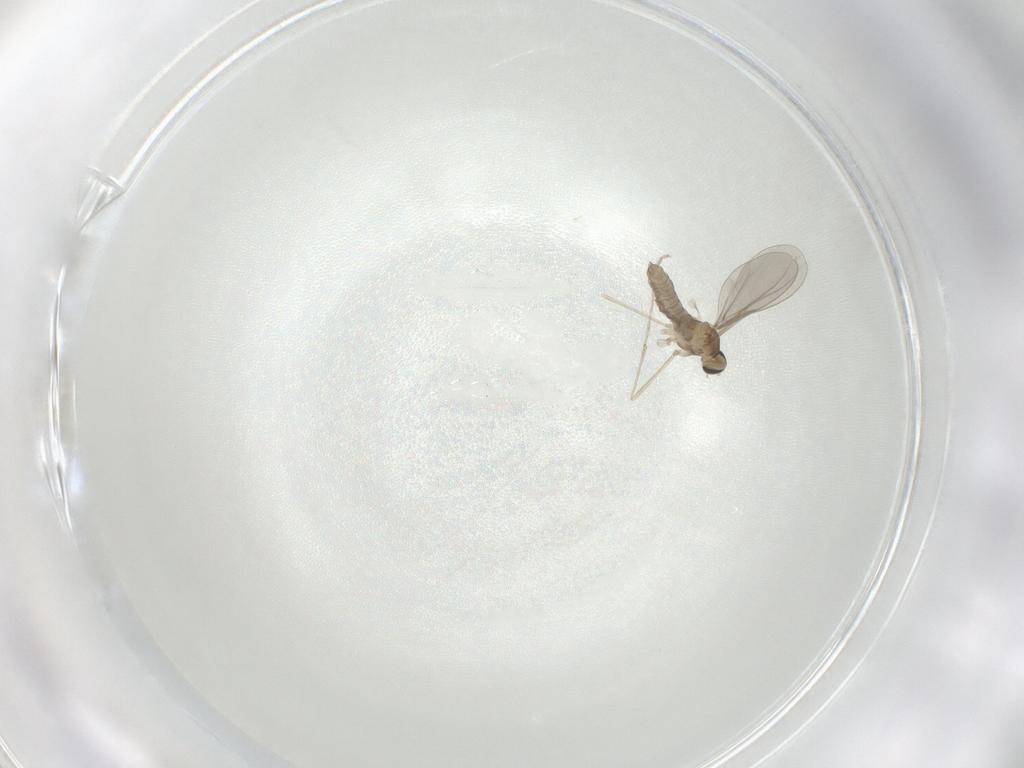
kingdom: Animalia
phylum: Arthropoda
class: Insecta
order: Diptera
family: Cecidomyiidae
